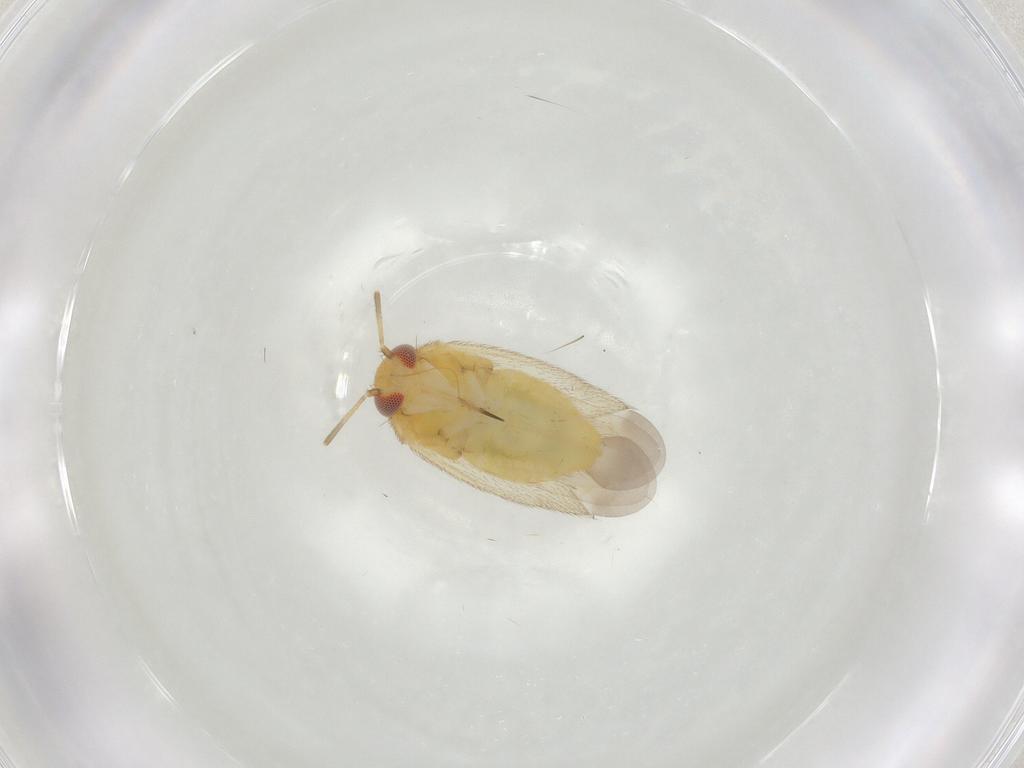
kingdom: Animalia
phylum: Arthropoda
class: Insecta
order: Hemiptera
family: Miridae
